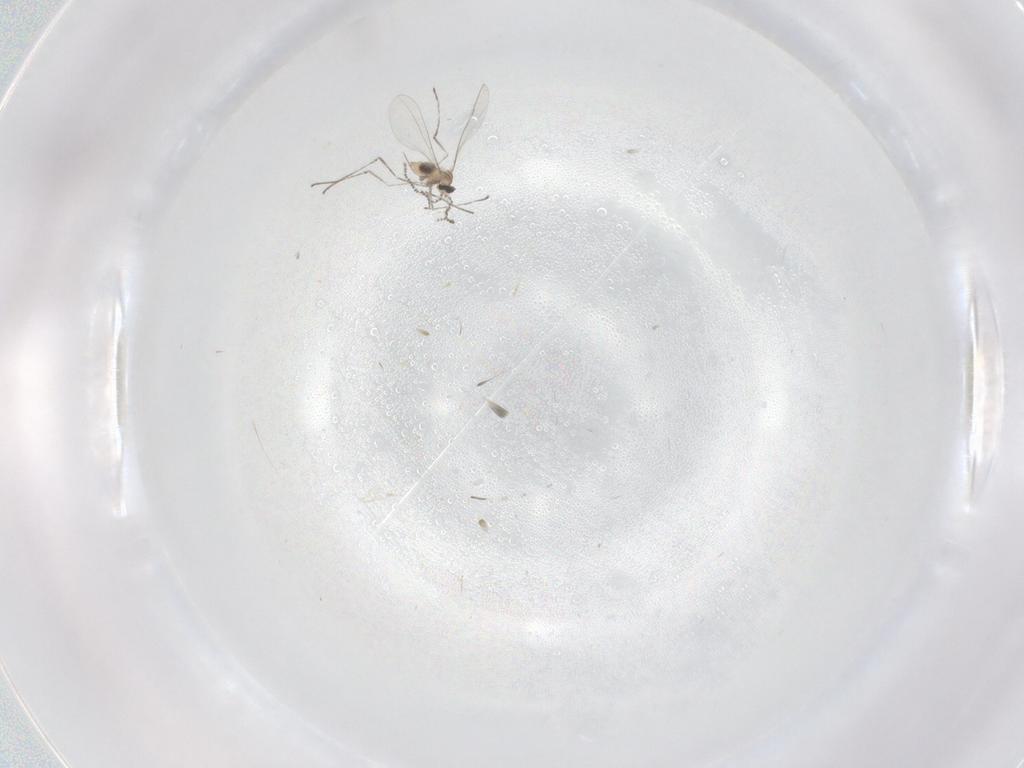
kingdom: Animalia
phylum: Arthropoda
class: Insecta
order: Diptera
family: Cecidomyiidae
